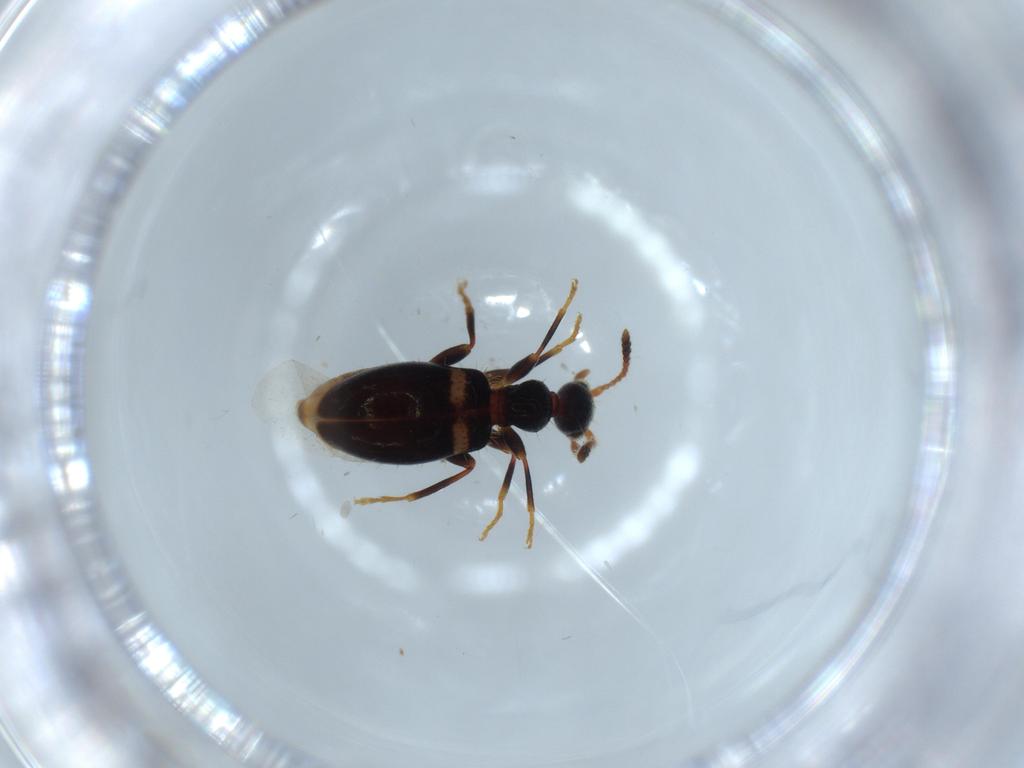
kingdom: Animalia
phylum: Arthropoda
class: Insecta
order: Coleoptera
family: Anthicidae
